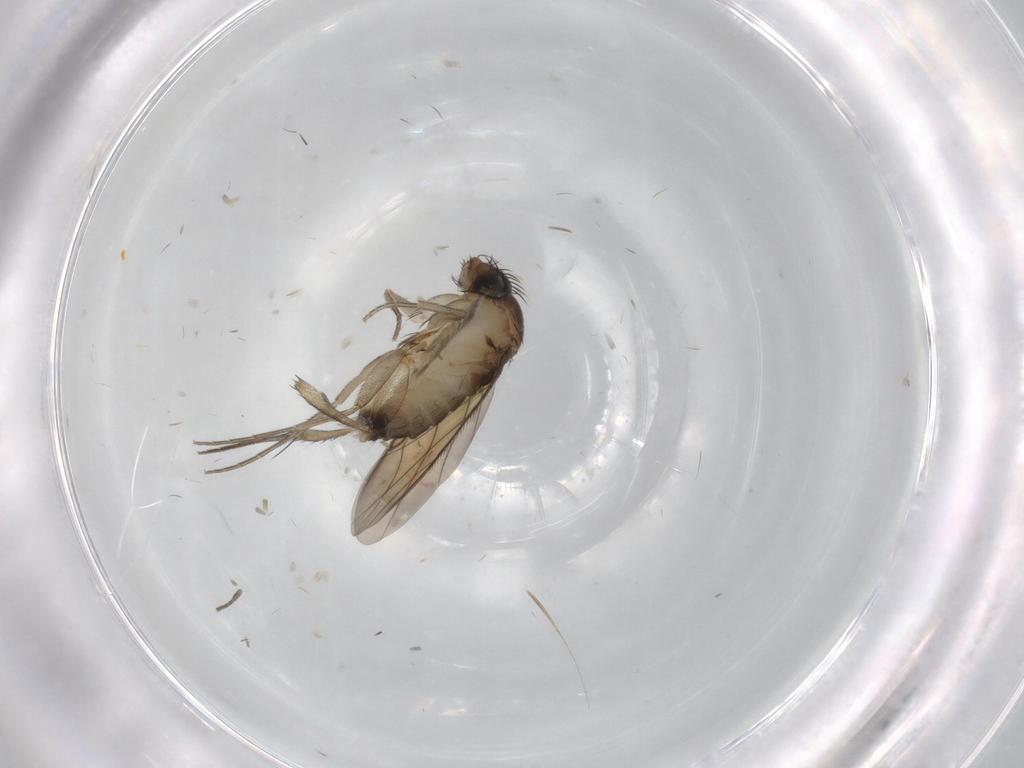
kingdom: Animalia
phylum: Arthropoda
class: Insecta
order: Diptera
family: Phoridae
